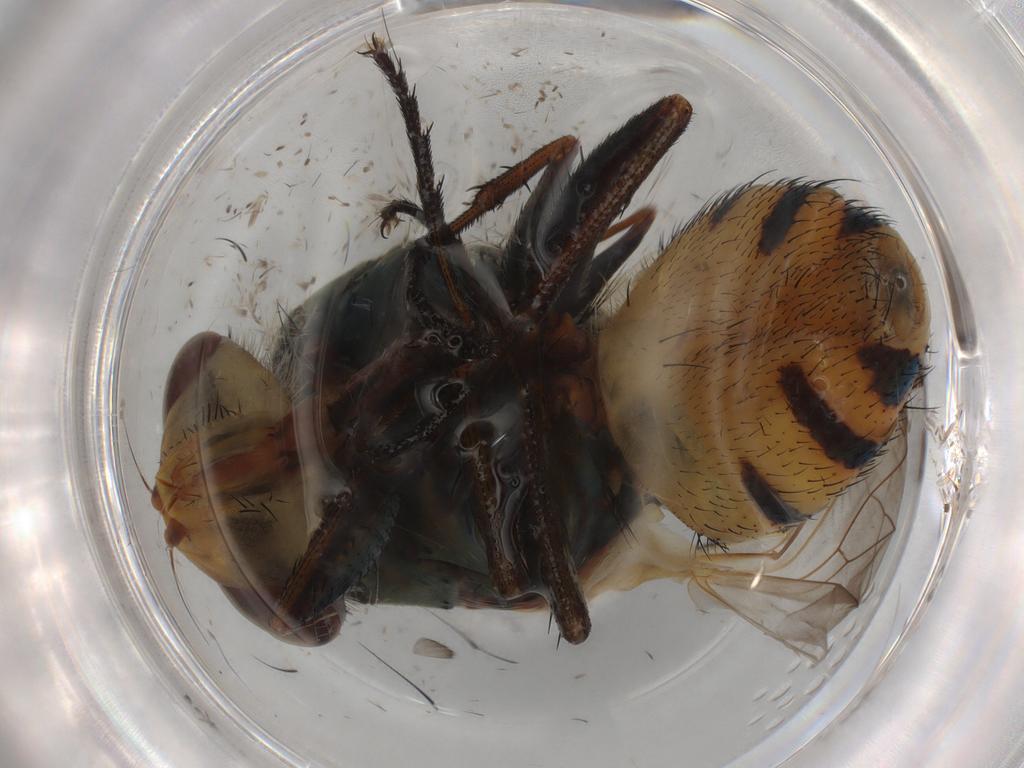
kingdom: Animalia
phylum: Arthropoda
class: Insecta
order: Diptera
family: Calliphoridae
